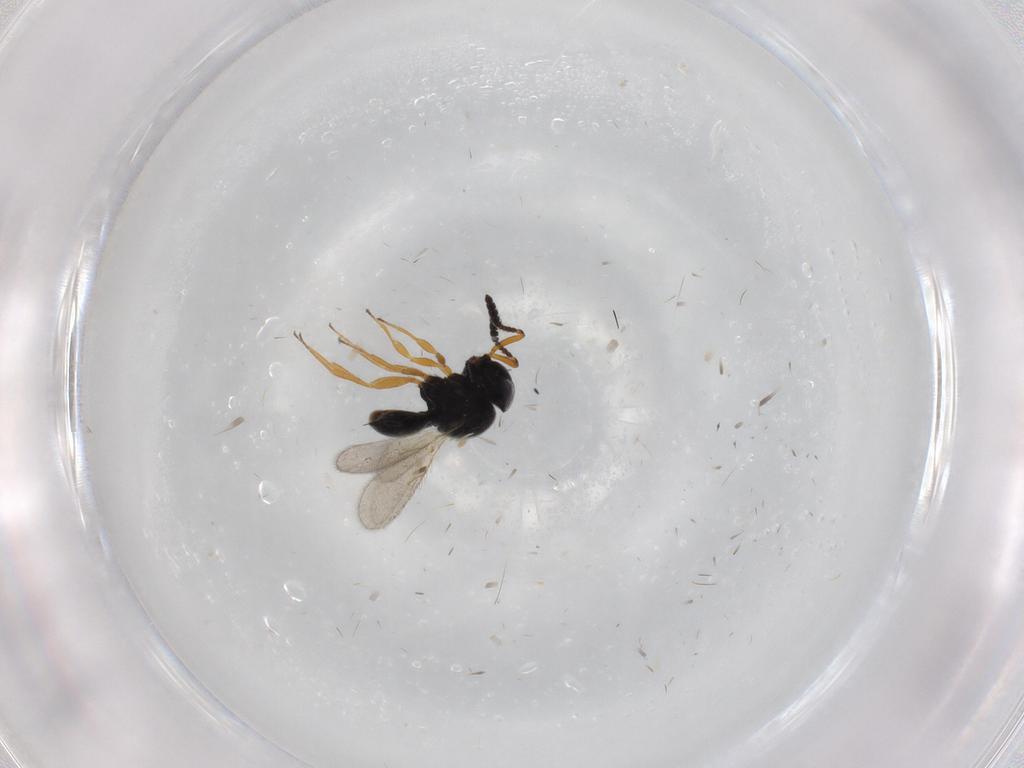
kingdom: Animalia
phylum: Arthropoda
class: Insecta
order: Hymenoptera
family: Scelionidae
